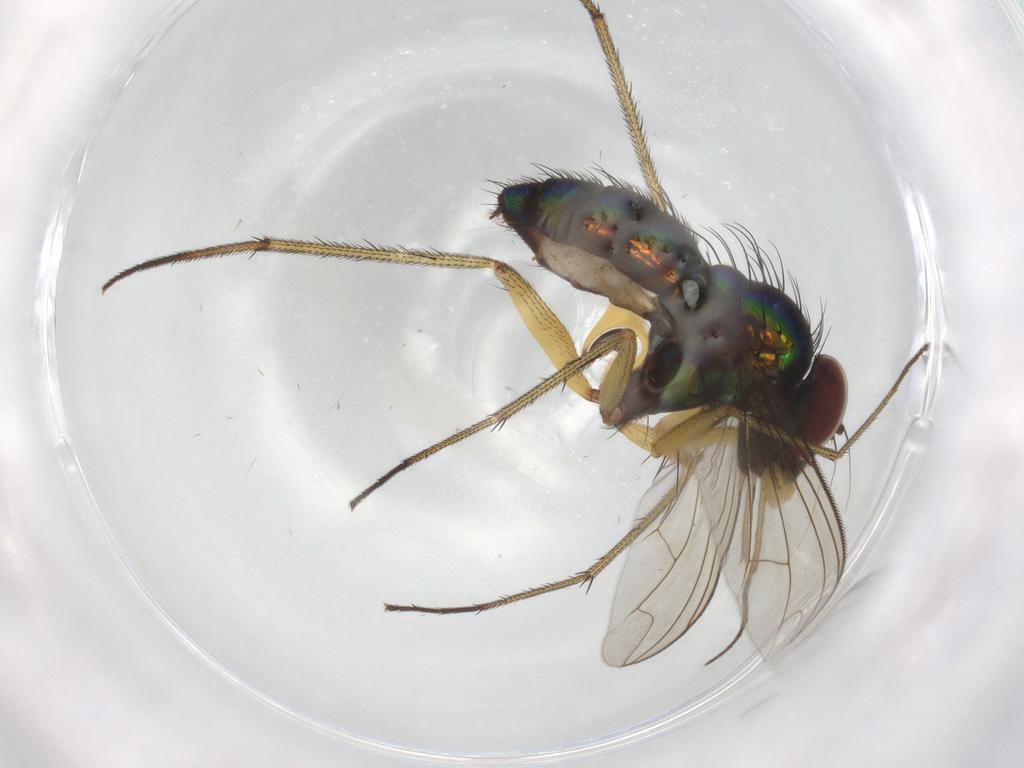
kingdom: Animalia
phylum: Arthropoda
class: Insecta
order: Diptera
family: Dolichopodidae
